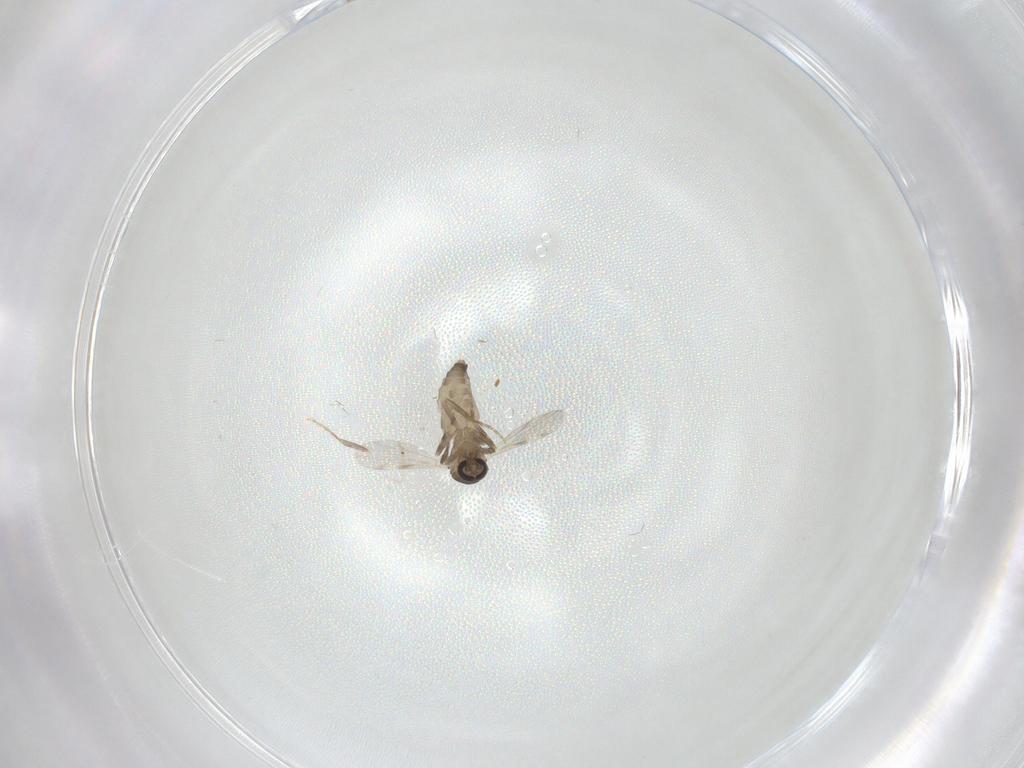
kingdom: Animalia
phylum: Arthropoda
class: Insecta
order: Diptera
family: Ceratopogonidae
